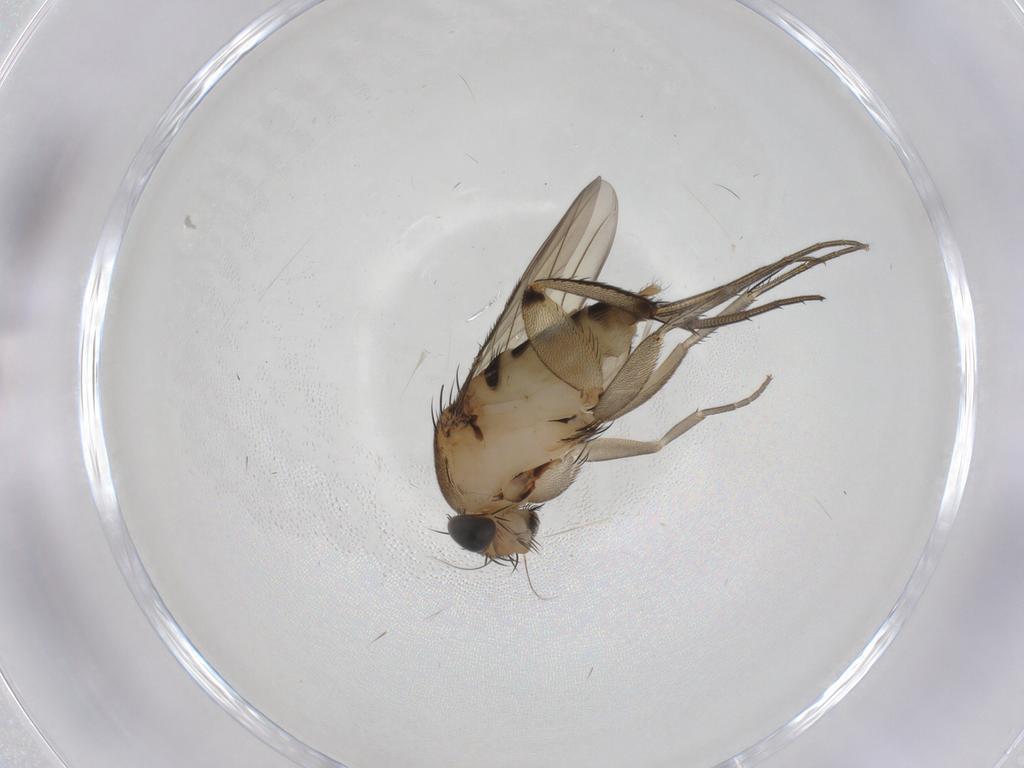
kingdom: Animalia
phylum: Arthropoda
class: Insecta
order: Diptera
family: Phoridae
